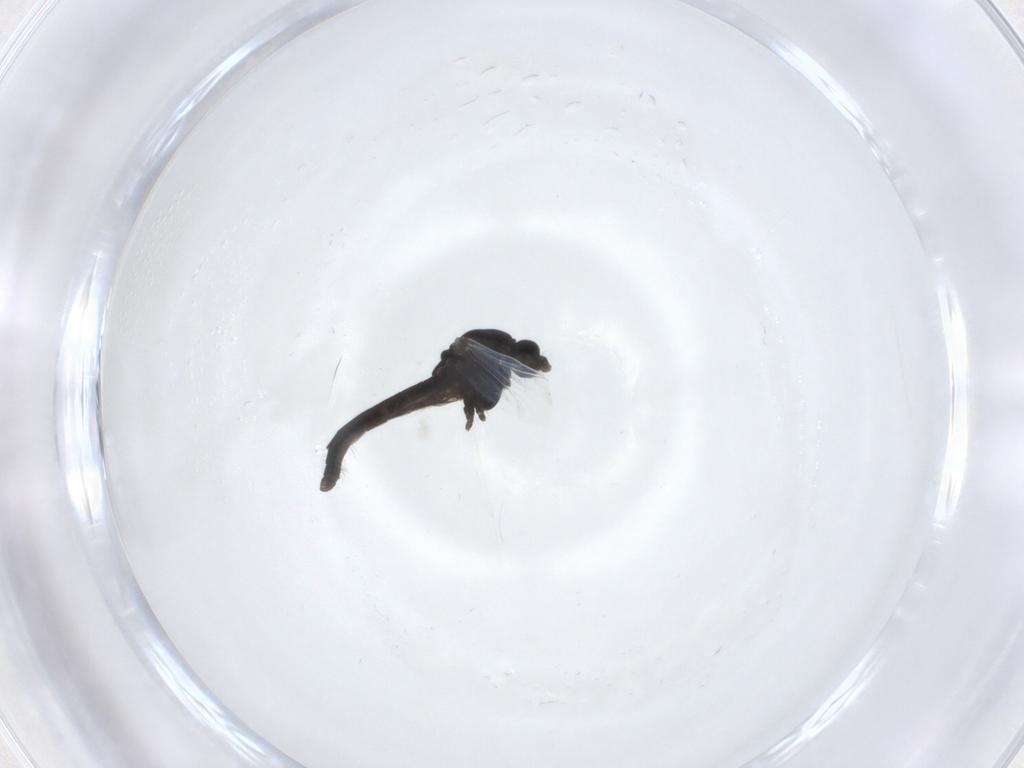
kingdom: Animalia
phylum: Arthropoda
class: Insecta
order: Diptera
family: Chironomidae
